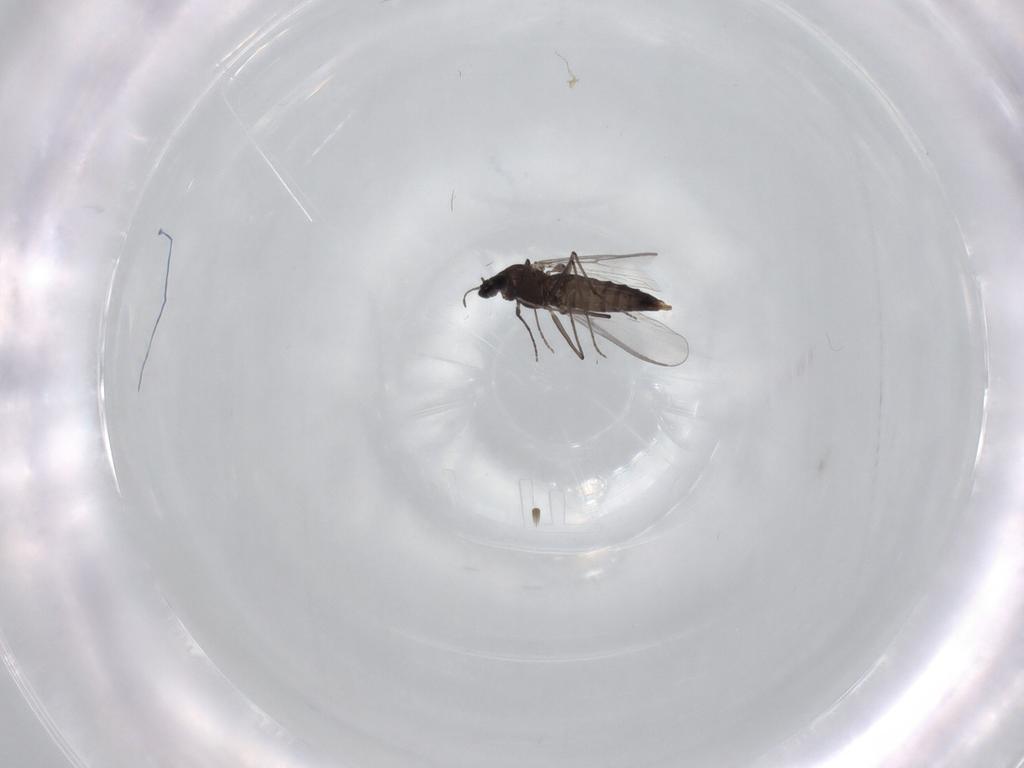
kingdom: Animalia
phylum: Arthropoda
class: Insecta
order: Diptera
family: Chironomidae
